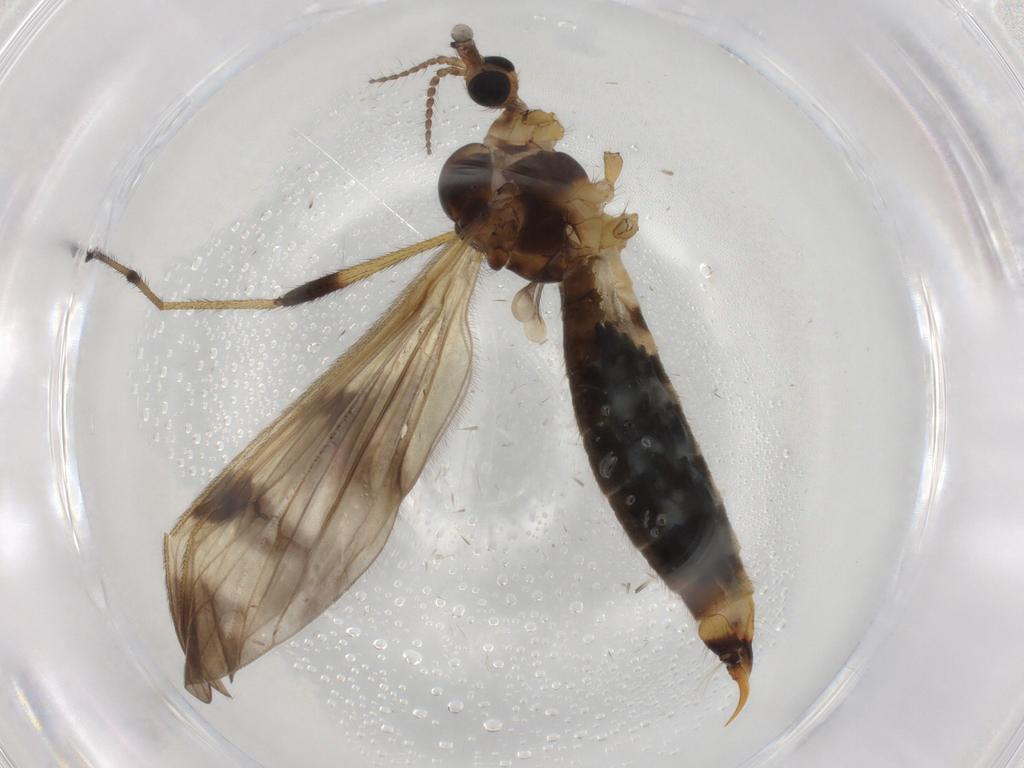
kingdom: Animalia
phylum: Arthropoda
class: Insecta
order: Diptera
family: Limoniidae
